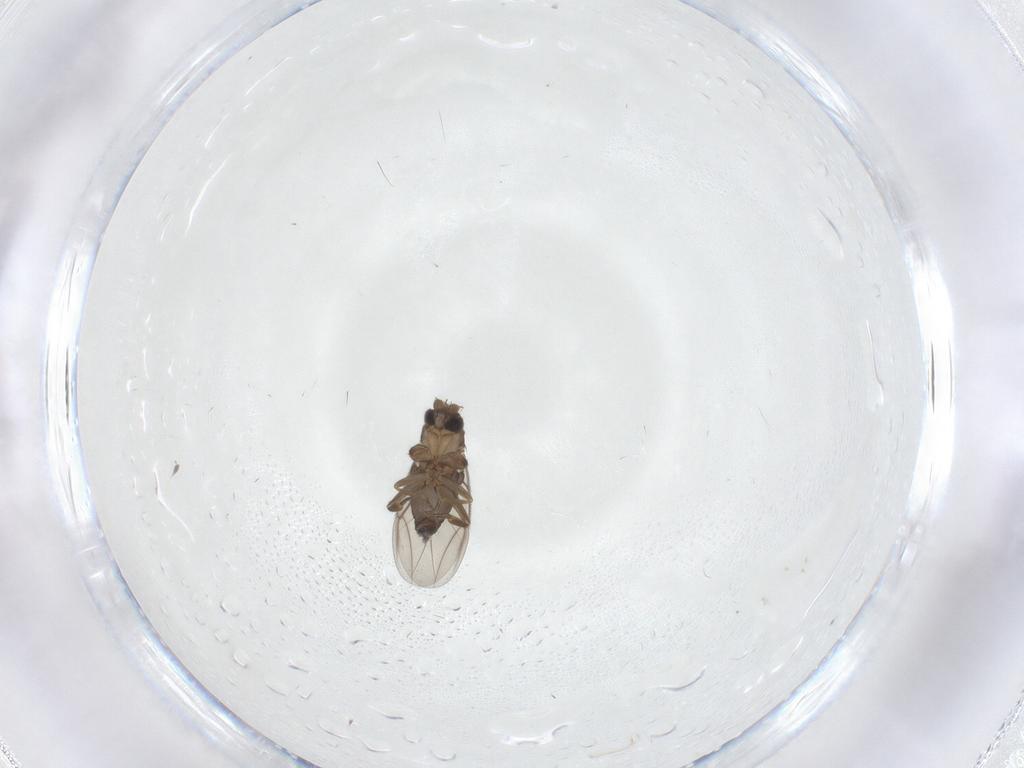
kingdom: Animalia
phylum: Arthropoda
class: Insecta
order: Diptera
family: Phoridae
